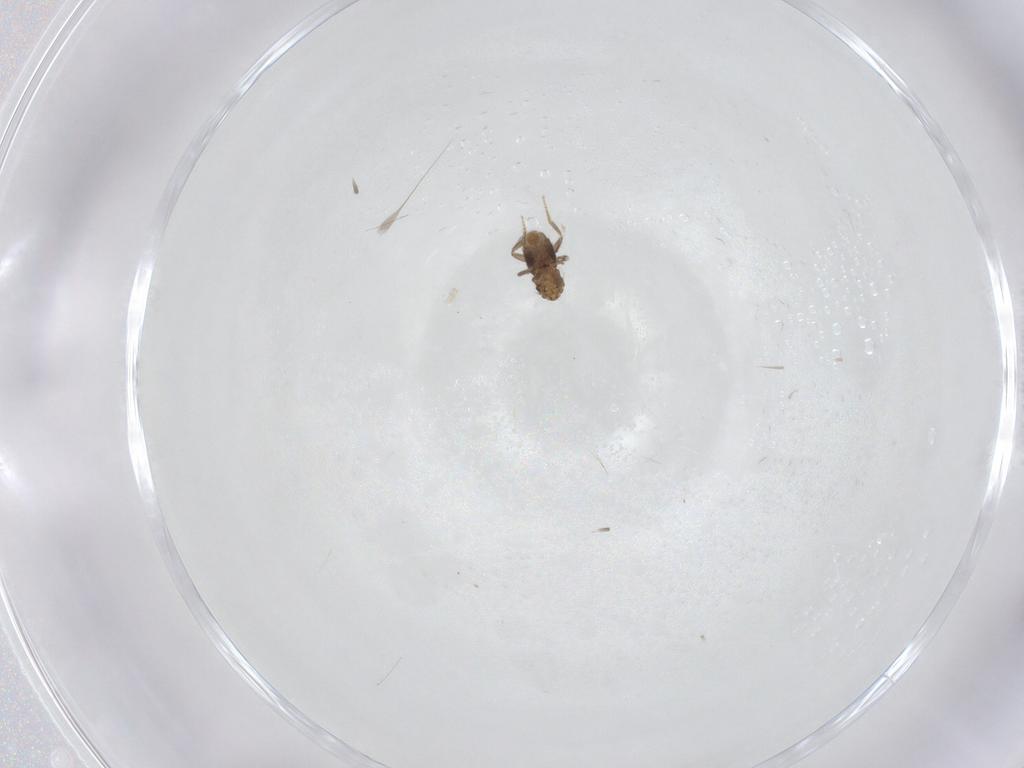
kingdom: Animalia
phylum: Arthropoda
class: Insecta
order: Diptera
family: Phoridae
